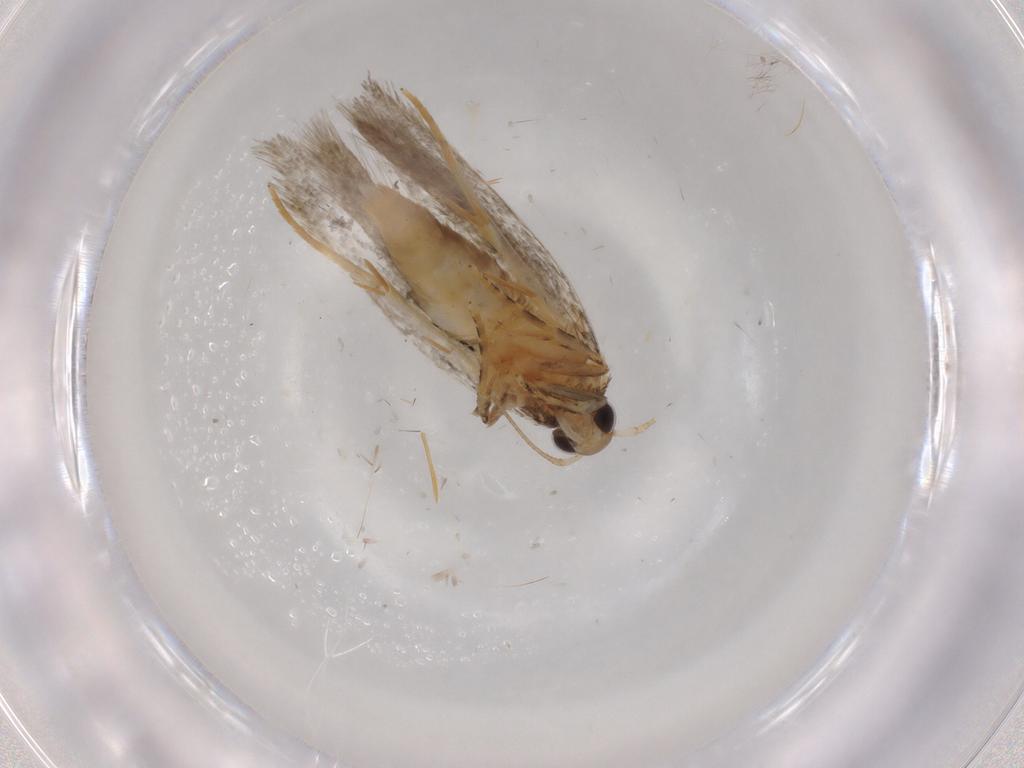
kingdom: Animalia
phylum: Arthropoda
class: Insecta
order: Lepidoptera
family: Autostichidae
